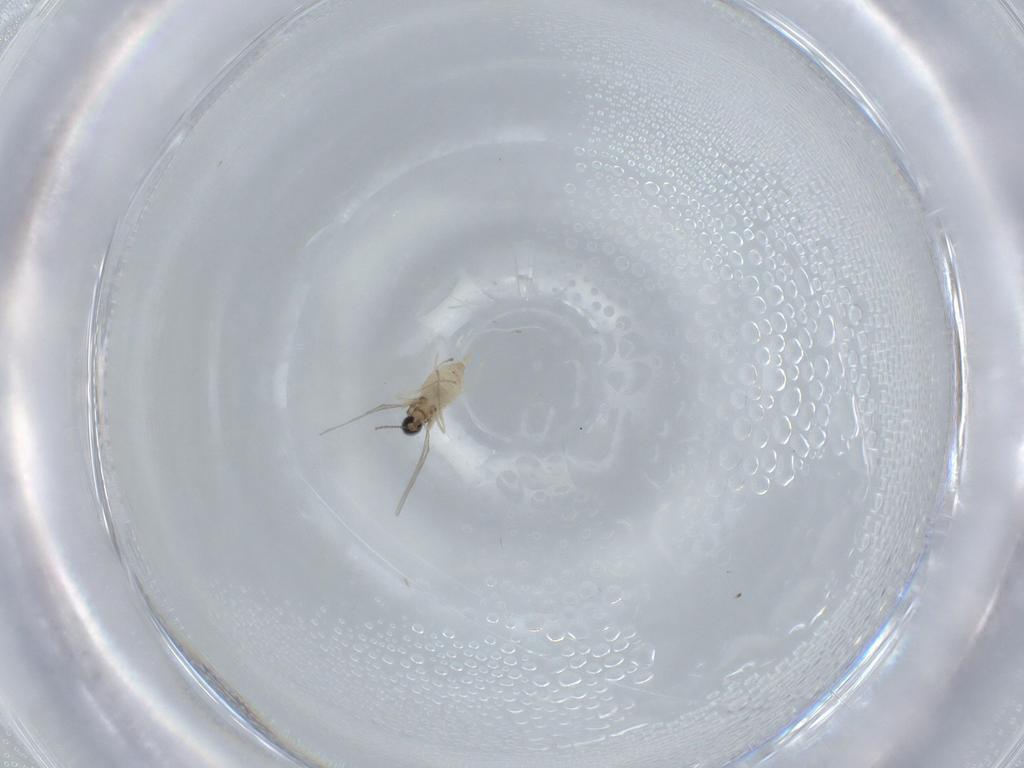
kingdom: Animalia
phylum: Arthropoda
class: Insecta
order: Diptera
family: Cecidomyiidae
